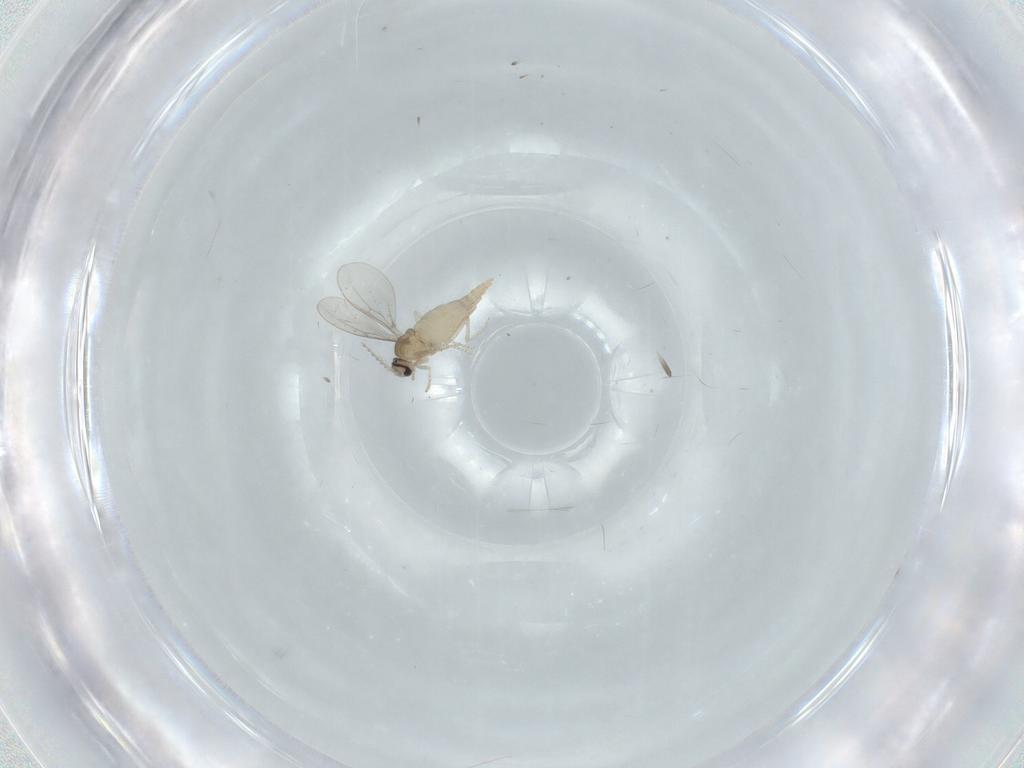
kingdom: Animalia
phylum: Arthropoda
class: Insecta
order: Diptera
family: Cecidomyiidae
